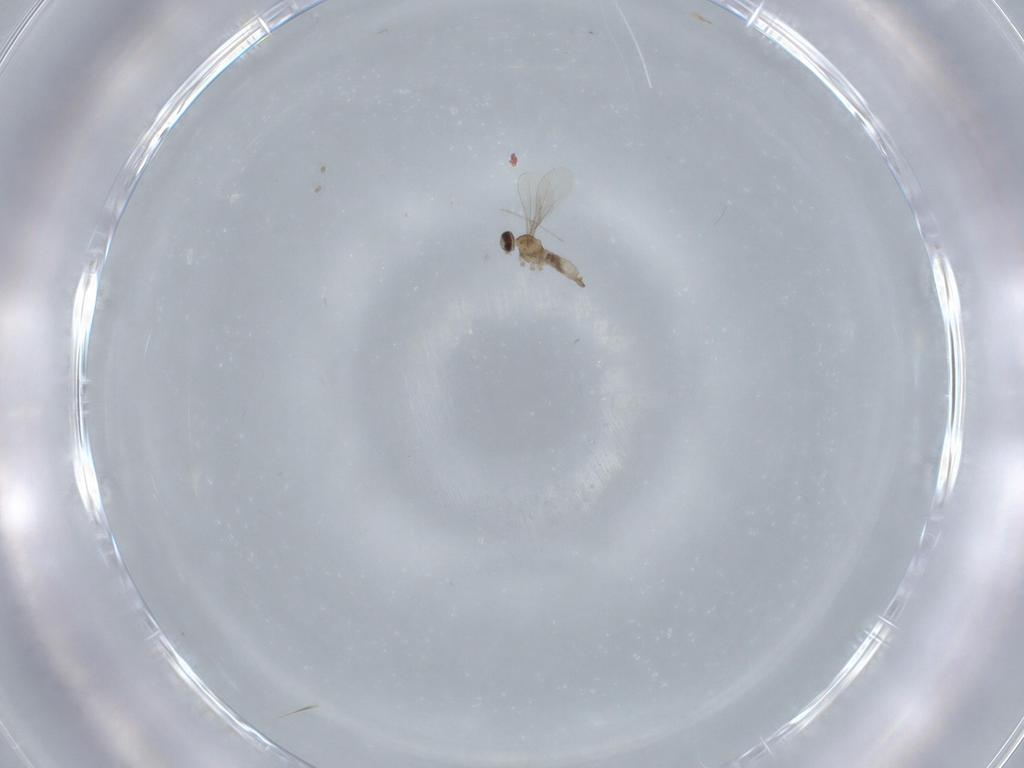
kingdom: Animalia
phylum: Arthropoda
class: Insecta
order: Diptera
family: Cecidomyiidae
